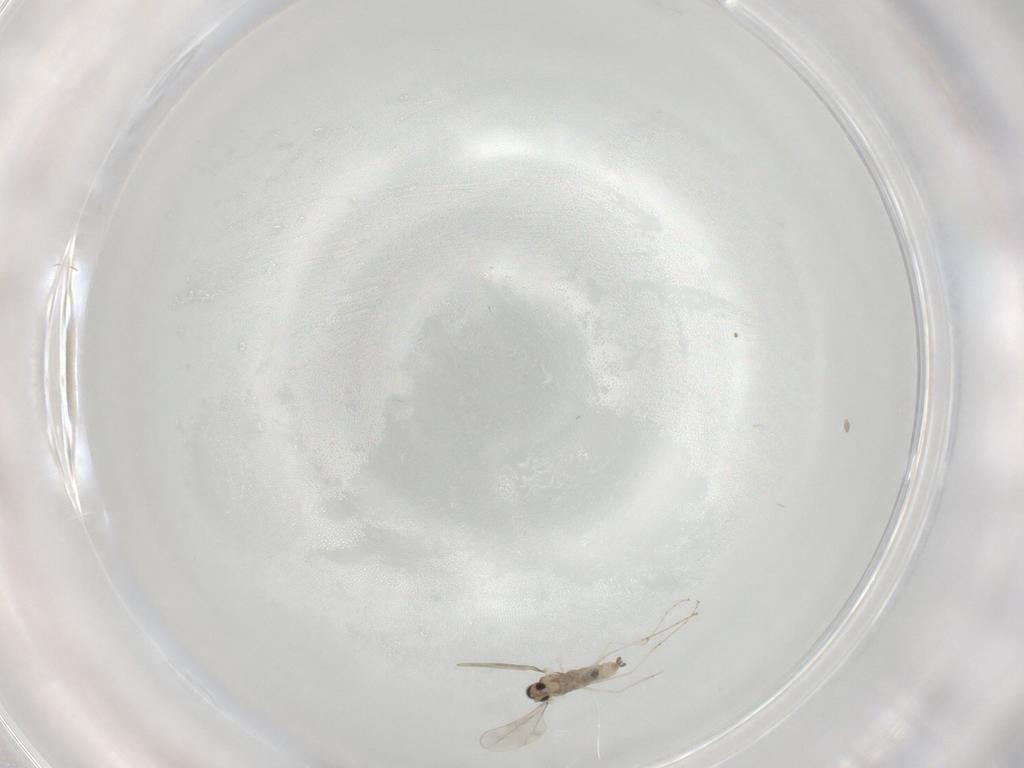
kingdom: Animalia
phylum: Arthropoda
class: Insecta
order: Diptera
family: Cecidomyiidae
